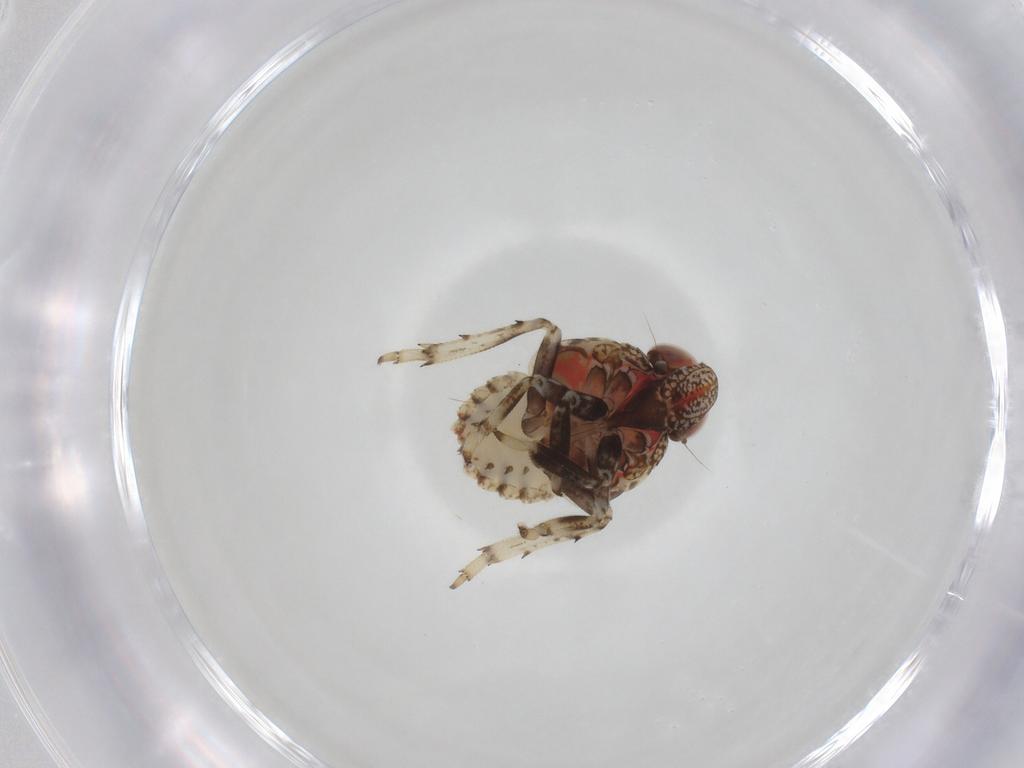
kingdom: Animalia
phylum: Arthropoda
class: Insecta
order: Hemiptera
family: Issidae
